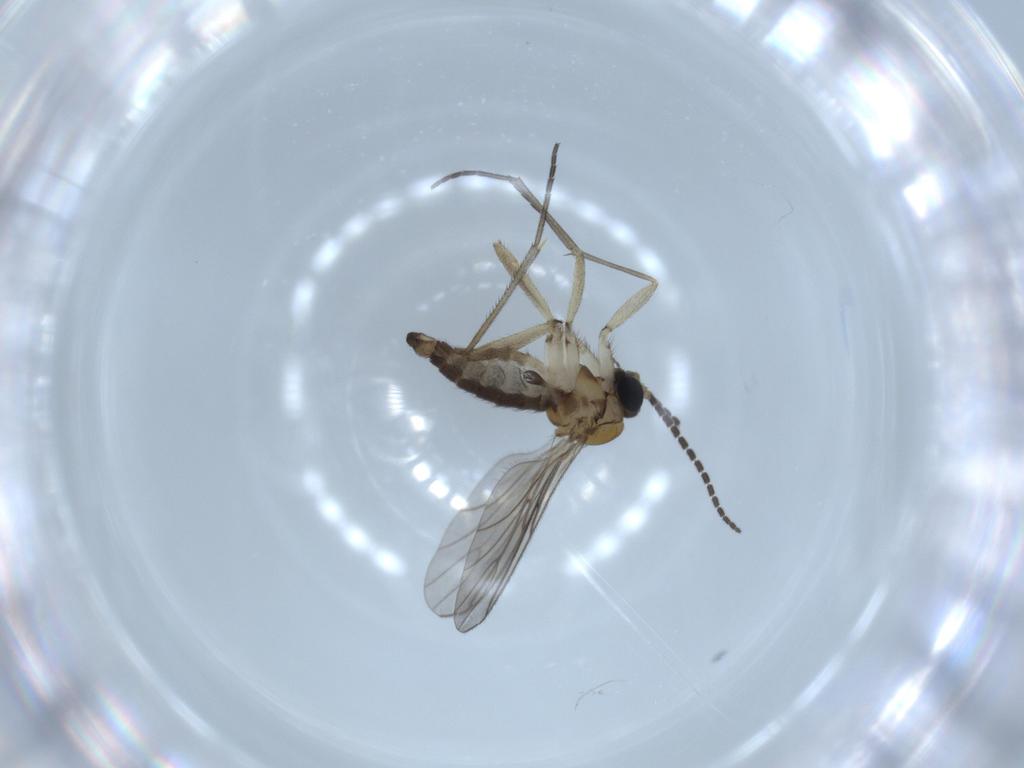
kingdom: Animalia
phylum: Arthropoda
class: Insecta
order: Diptera
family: Sciaridae
